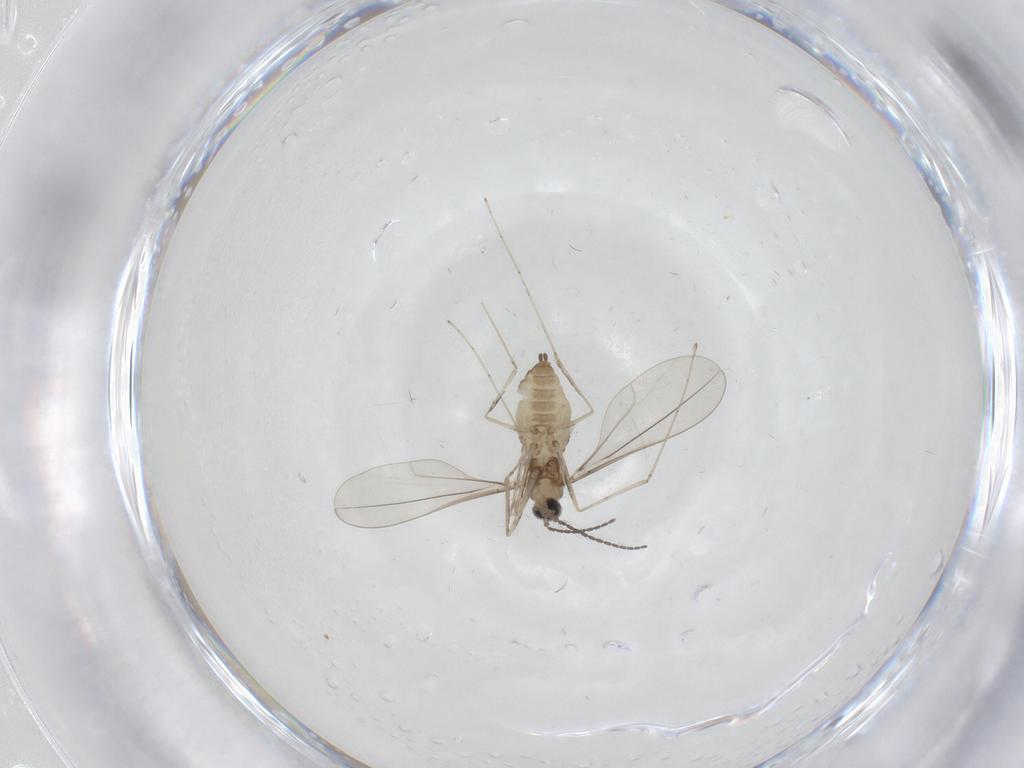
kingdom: Animalia
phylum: Arthropoda
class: Insecta
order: Diptera
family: Cecidomyiidae
